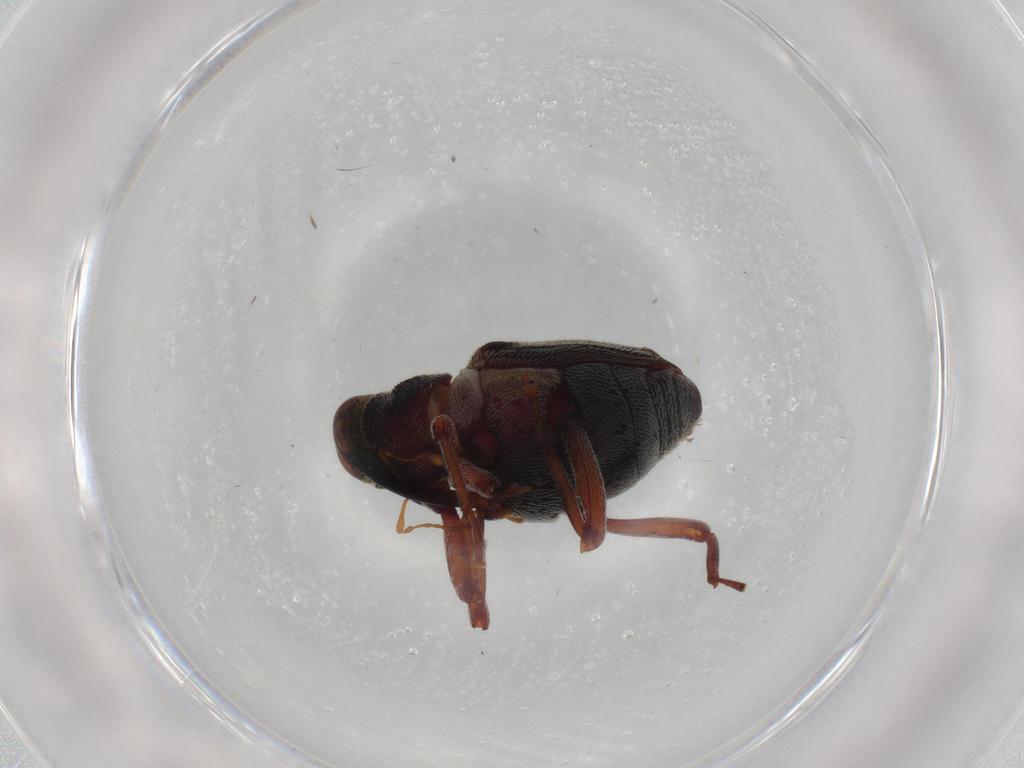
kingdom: Animalia
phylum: Arthropoda
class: Insecta
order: Coleoptera
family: Curculionidae
